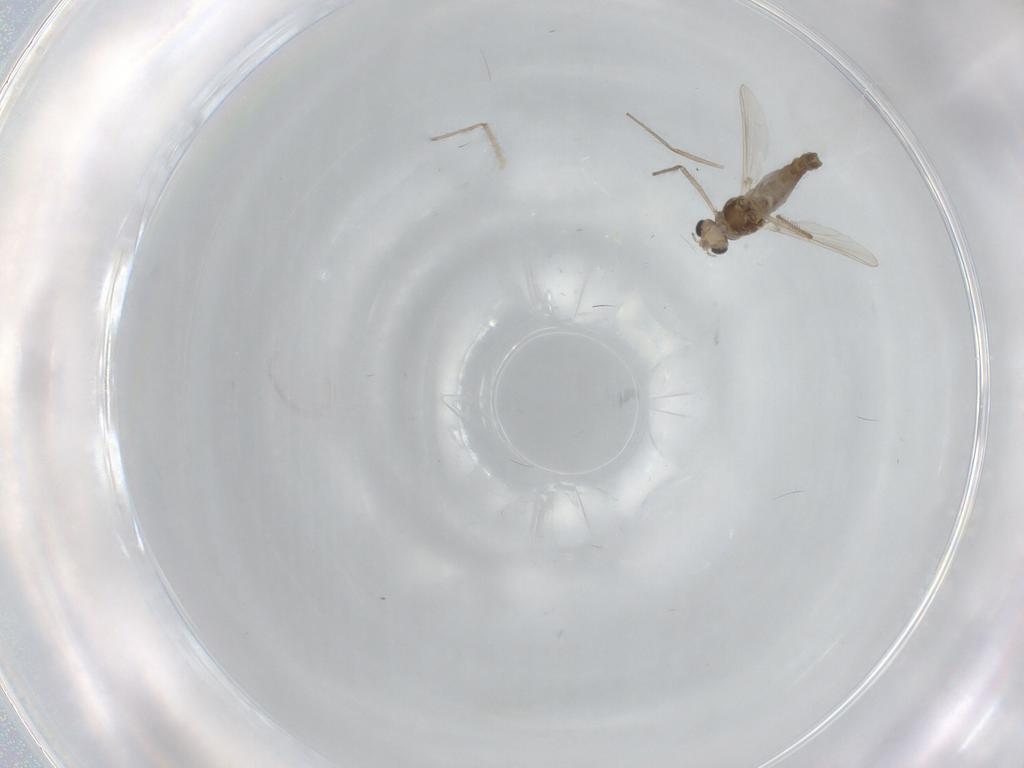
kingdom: Animalia
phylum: Arthropoda
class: Insecta
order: Diptera
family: Chironomidae
